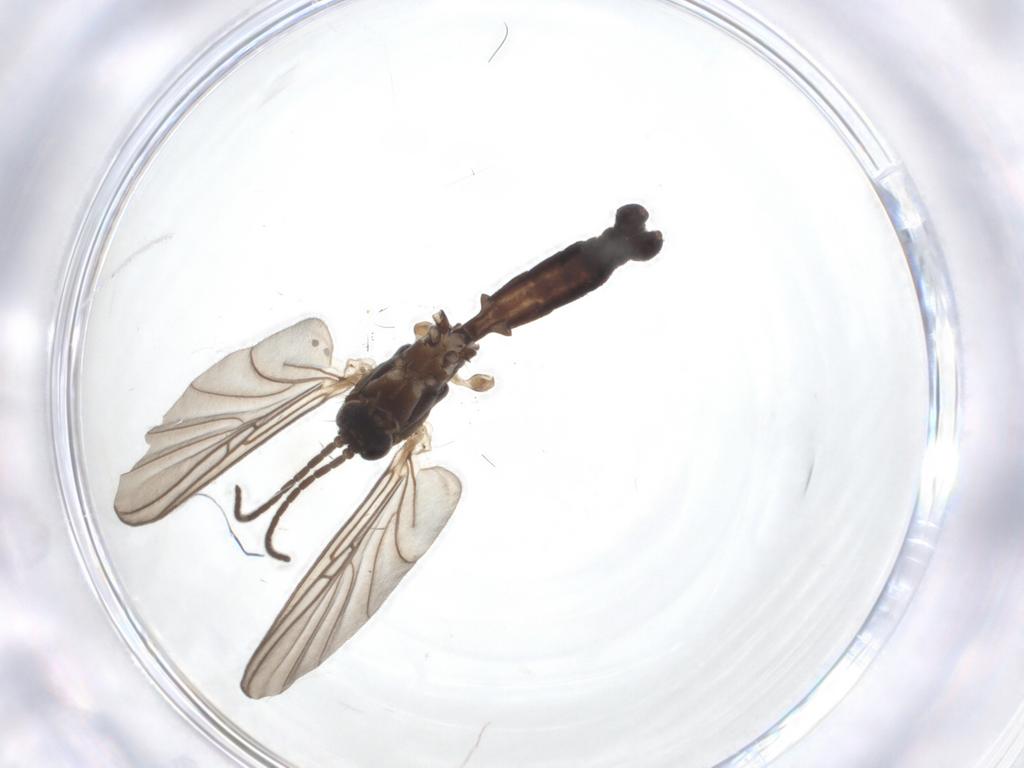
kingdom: Animalia
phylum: Arthropoda
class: Insecta
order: Diptera
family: Mycetophilidae
